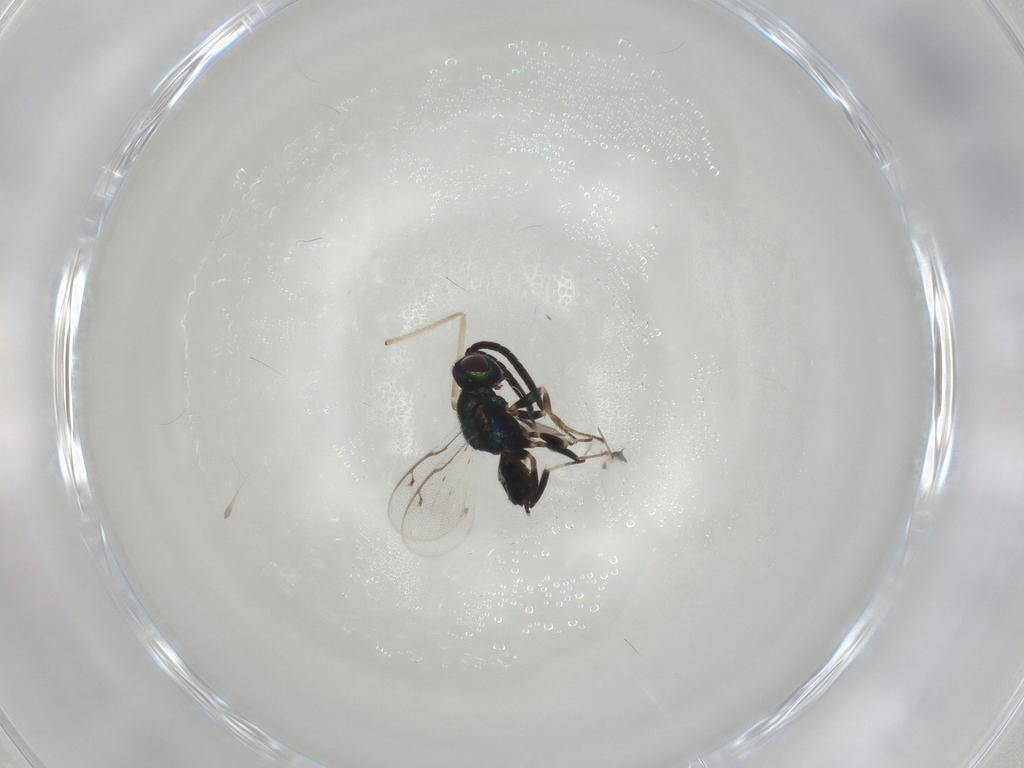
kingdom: Animalia
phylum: Arthropoda
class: Insecta
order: Hymenoptera
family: Eupelmidae
